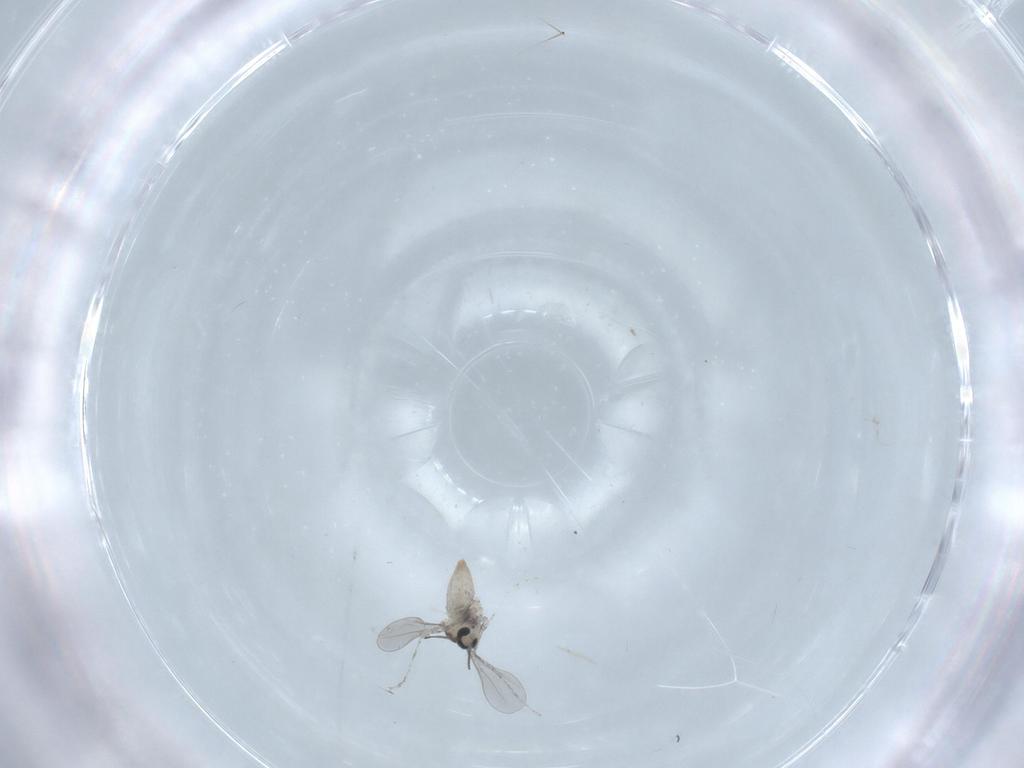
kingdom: Animalia
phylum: Arthropoda
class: Insecta
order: Diptera
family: Cecidomyiidae
